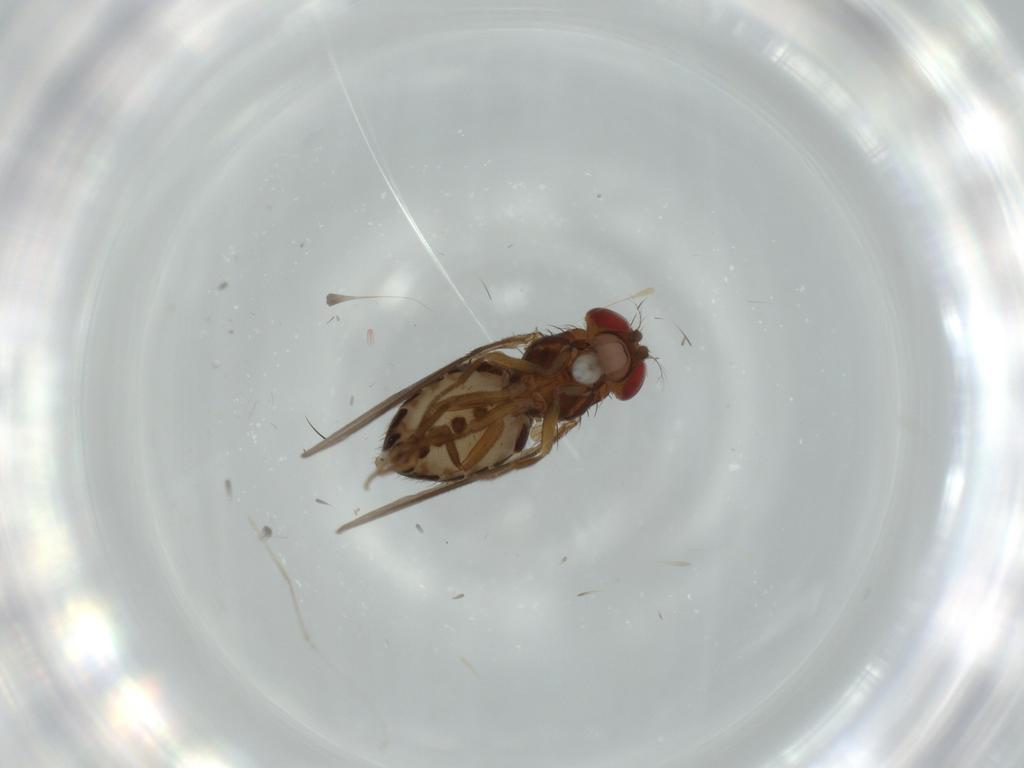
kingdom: Animalia
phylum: Arthropoda
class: Insecta
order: Diptera
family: Drosophilidae
